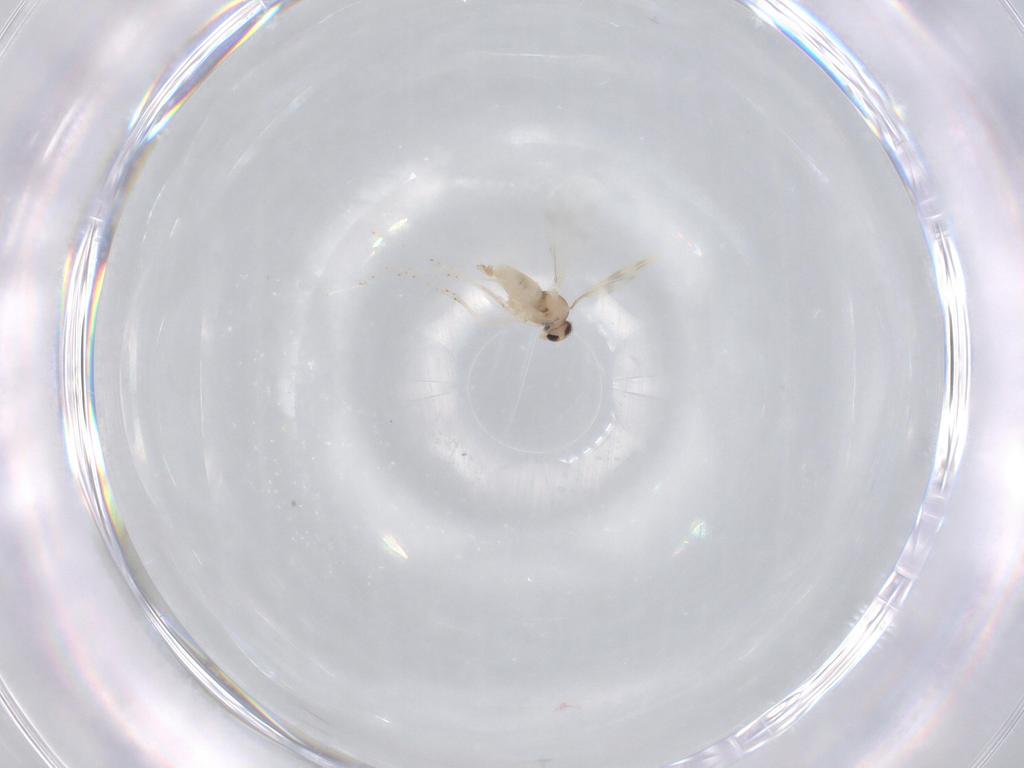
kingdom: Animalia
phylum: Arthropoda
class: Insecta
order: Diptera
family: Cecidomyiidae
